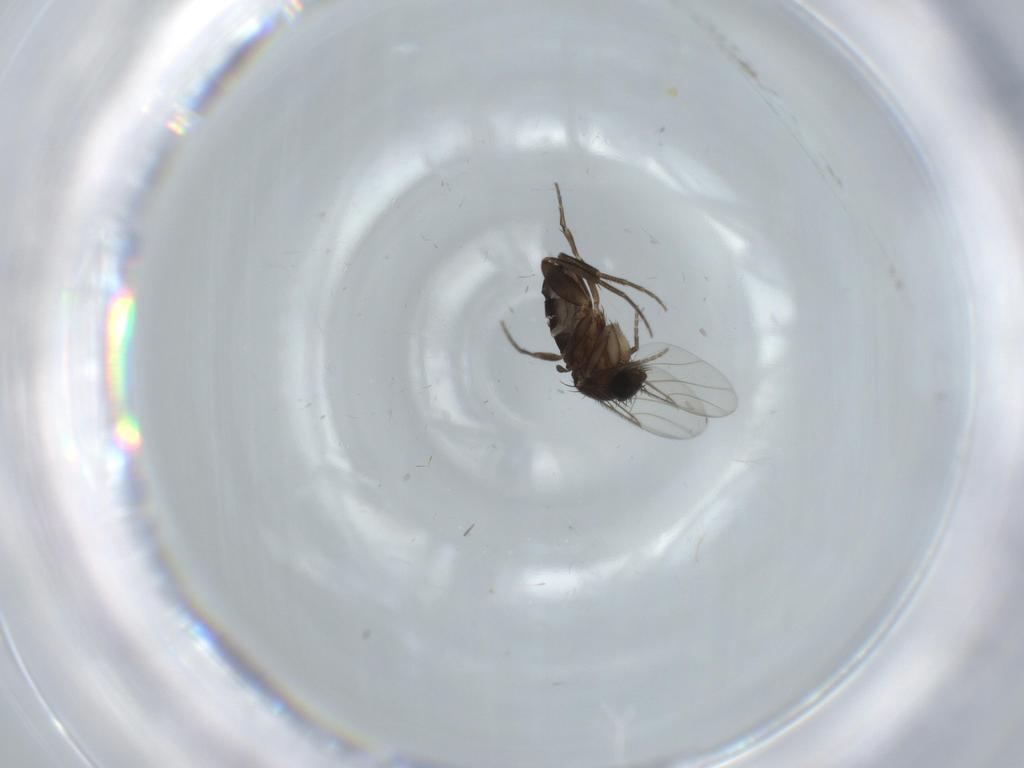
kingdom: Animalia
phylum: Arthropoda
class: Insecta
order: Diptera
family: Phoridae
